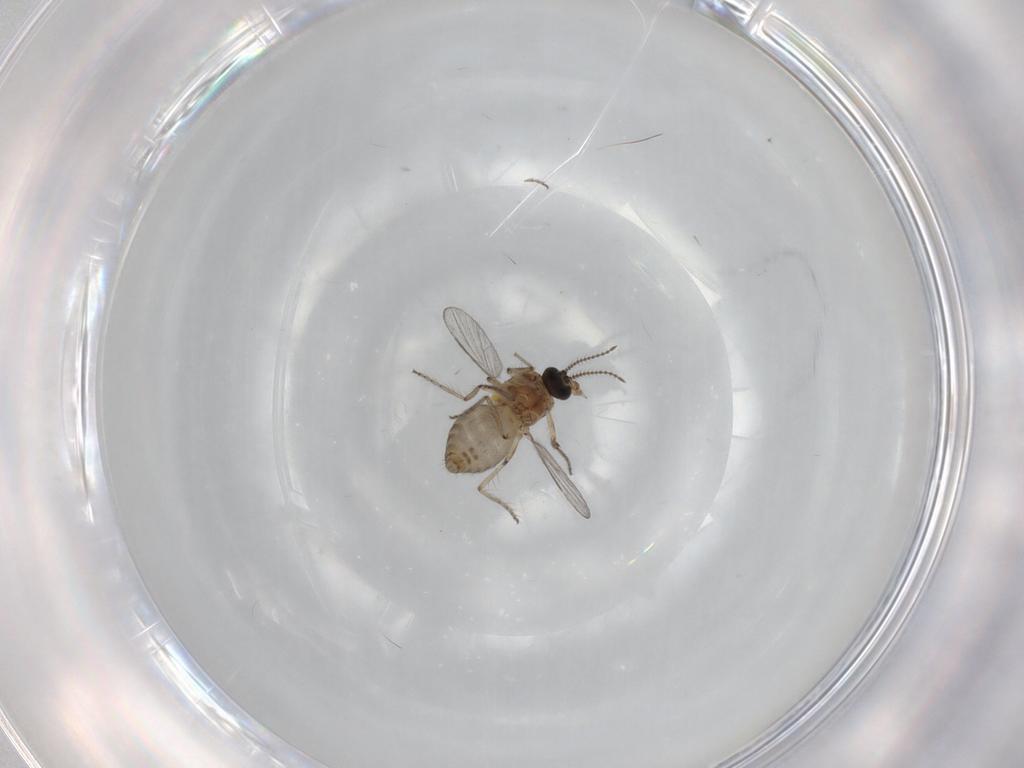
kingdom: Animalia
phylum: Arthropoda
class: Insecta
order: Diptera
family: Ceratopogonidae
